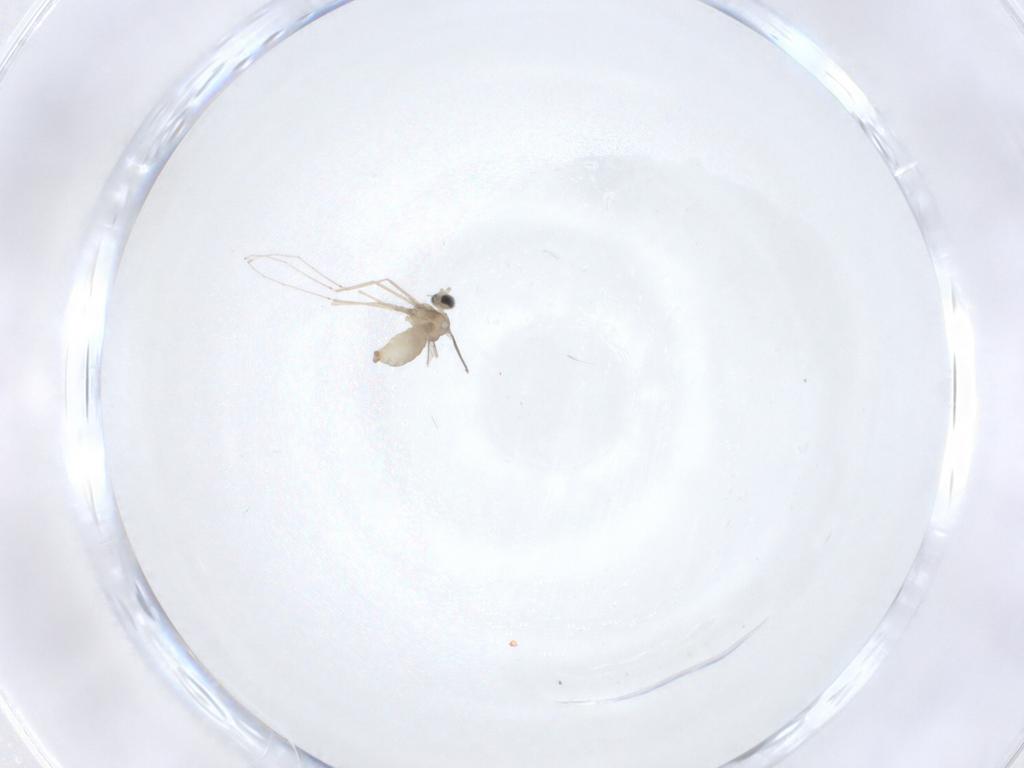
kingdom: Animalia
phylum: Arthropoda
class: Insecta
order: Diptera
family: Cecidomyiidae
